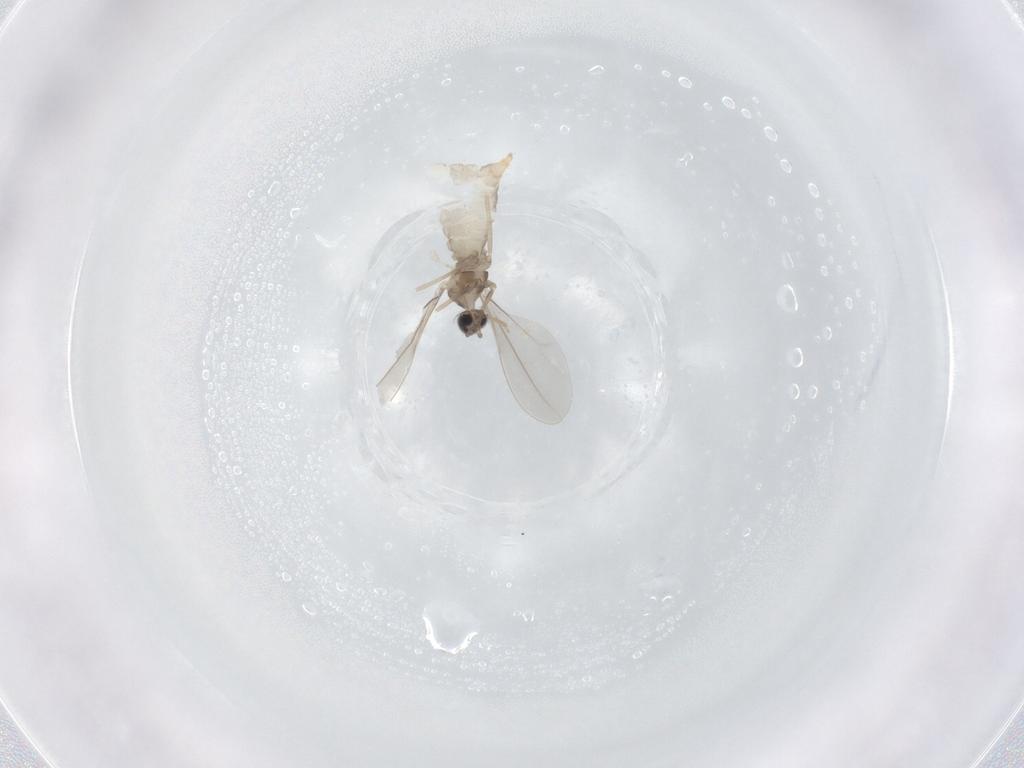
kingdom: Animalia
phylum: Arthropoda
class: Insecta
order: Diptera
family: Cecidomyiidae
